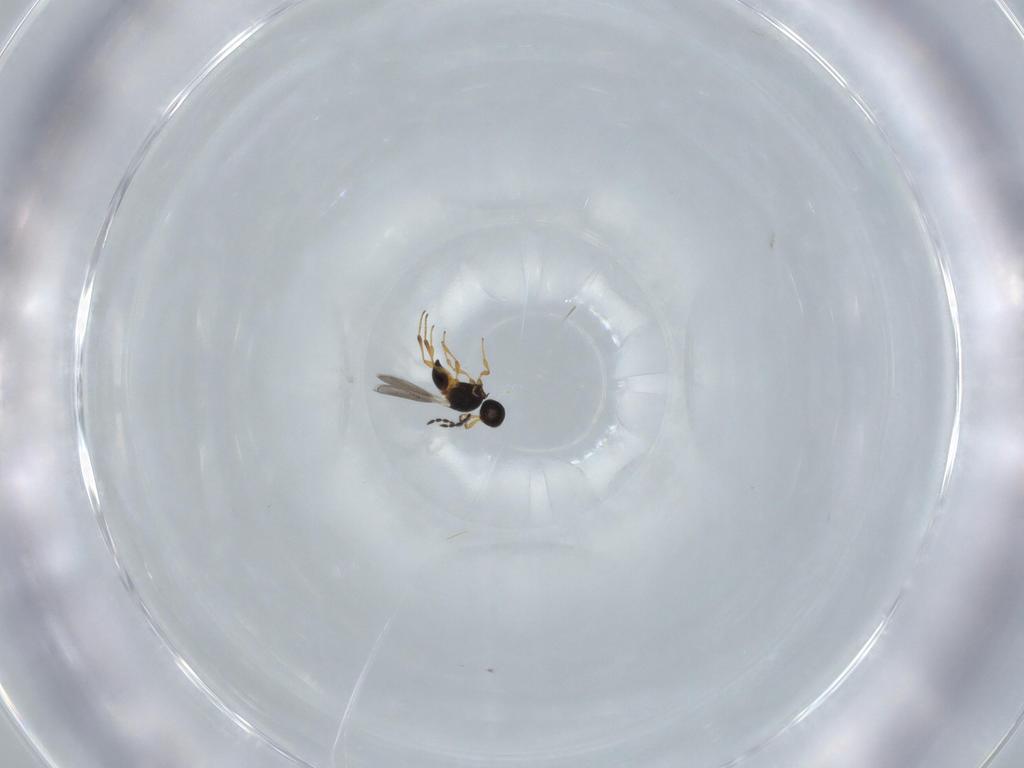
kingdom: Animalia
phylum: Arthropoda
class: Insecta
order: Hymenoptera
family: Platygastridae
